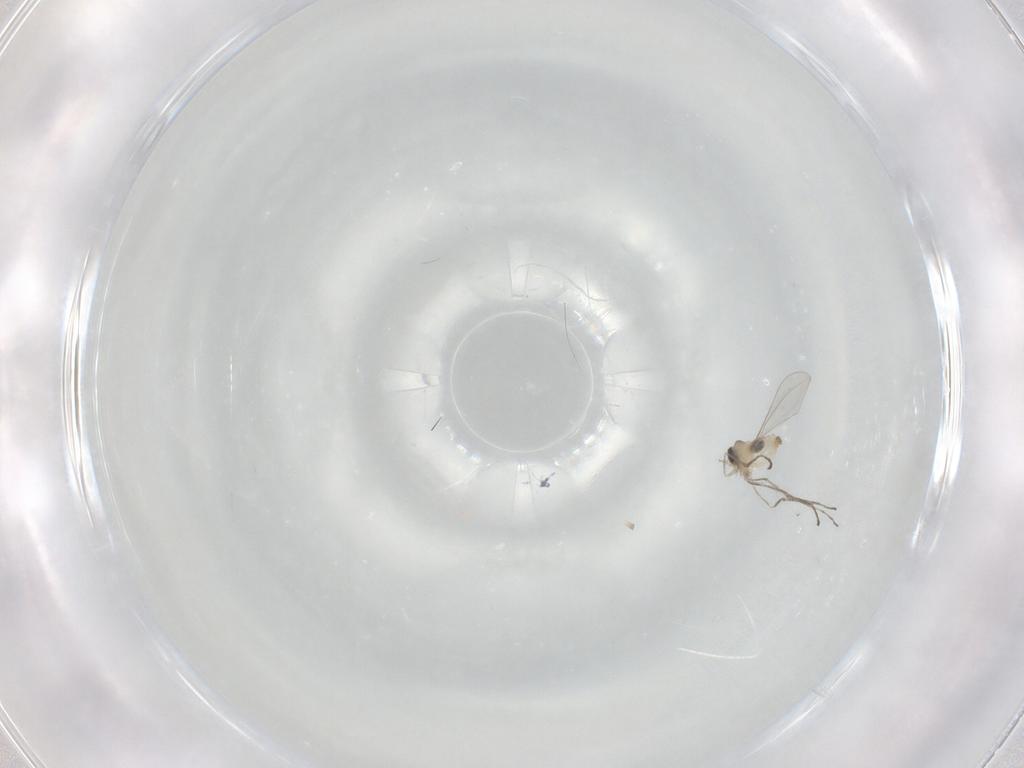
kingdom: Animalia
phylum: Arthropoda
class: Insecta
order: Diptera
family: Cecidomyiidae
